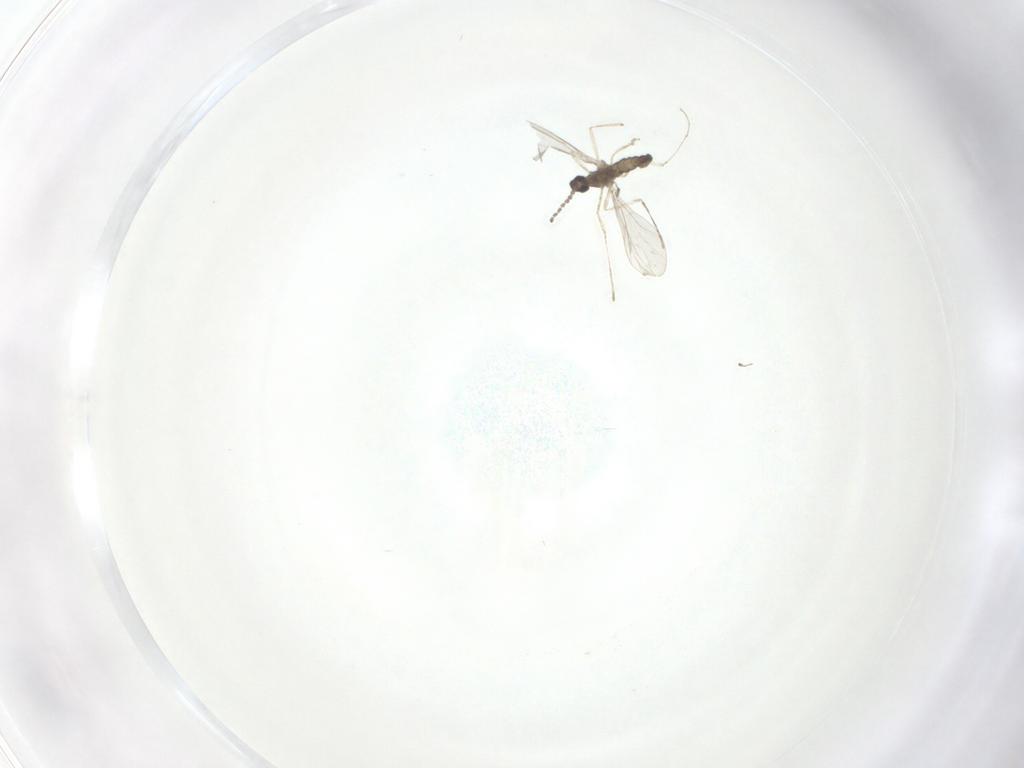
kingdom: Animalia
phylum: Arthropoda
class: Insecta
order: Diptera
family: Cecidomyiidae
